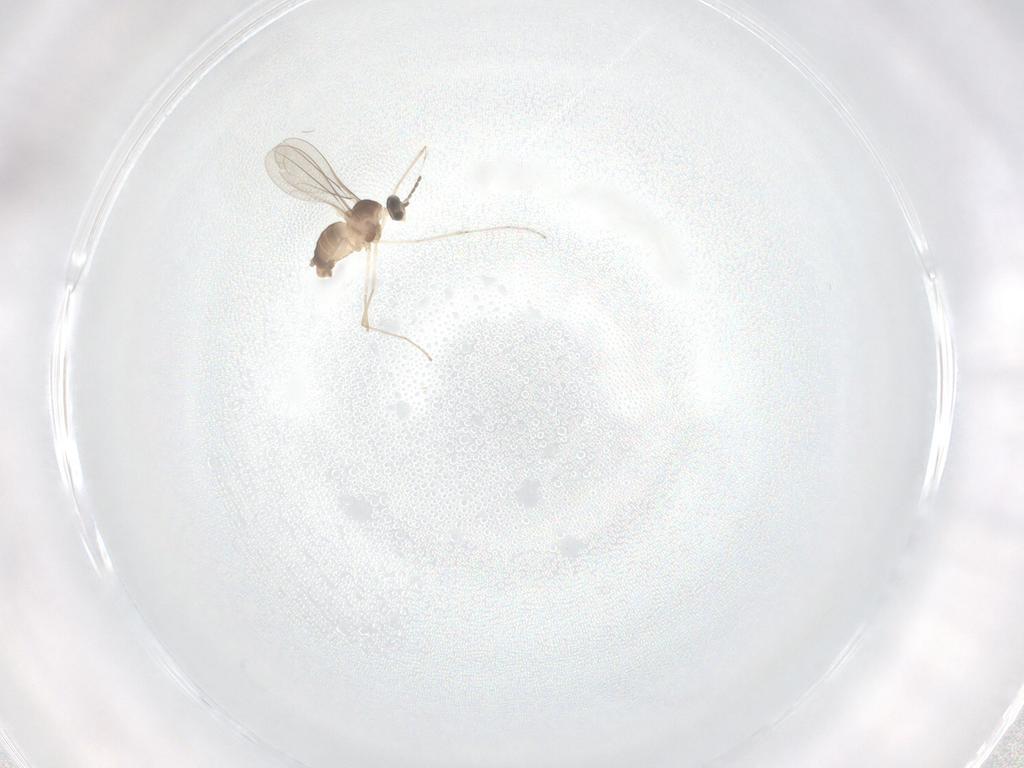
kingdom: Animalia
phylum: Arthropoda
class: Insecta
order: Diptera
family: Cecidomyiidae
